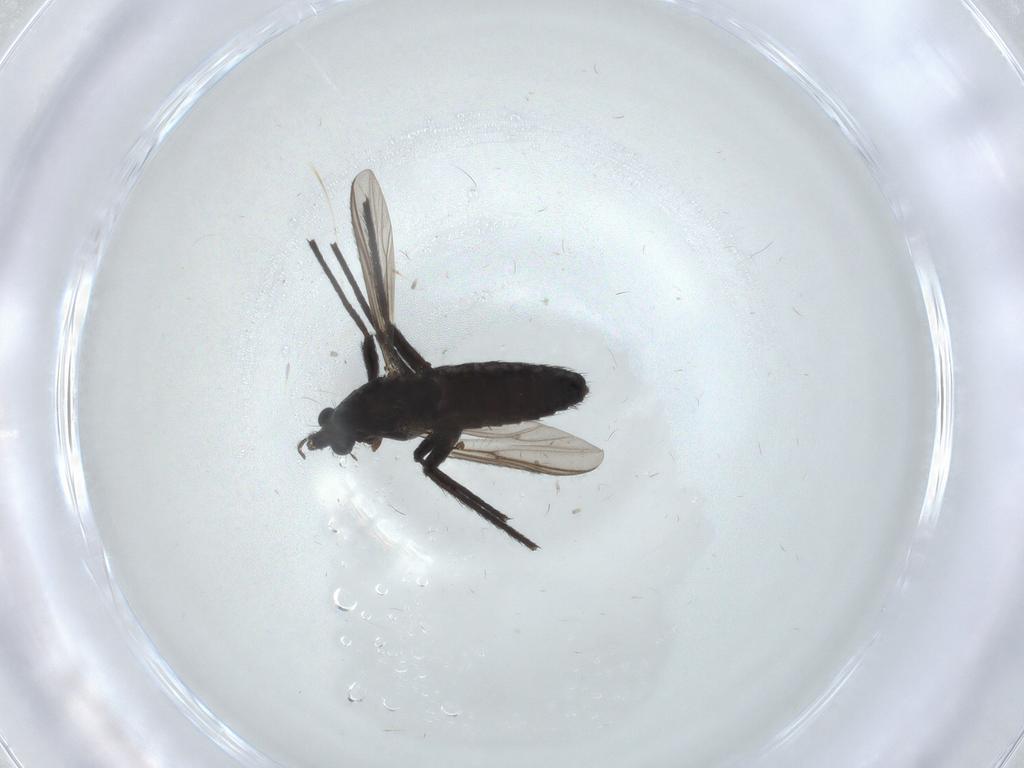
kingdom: Animalia
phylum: Arthropoda
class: Insecta
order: Diptera
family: Chironomidae
